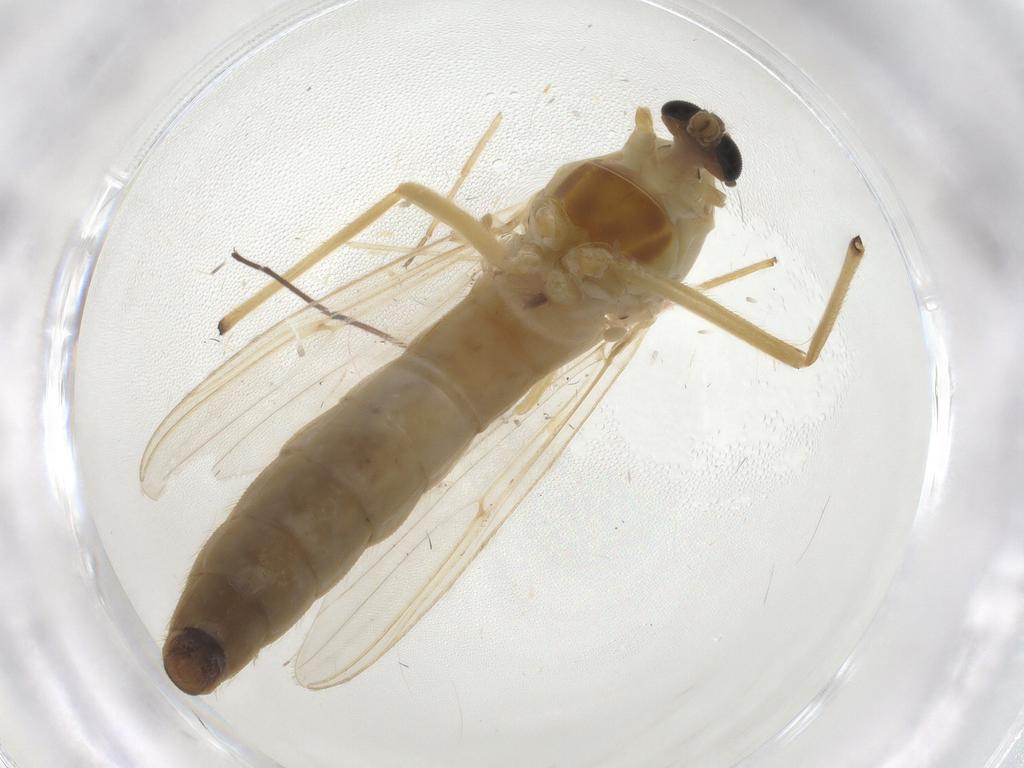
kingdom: Animalia
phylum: Arthropoda
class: Insecta
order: Diptera
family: Chironomidae
